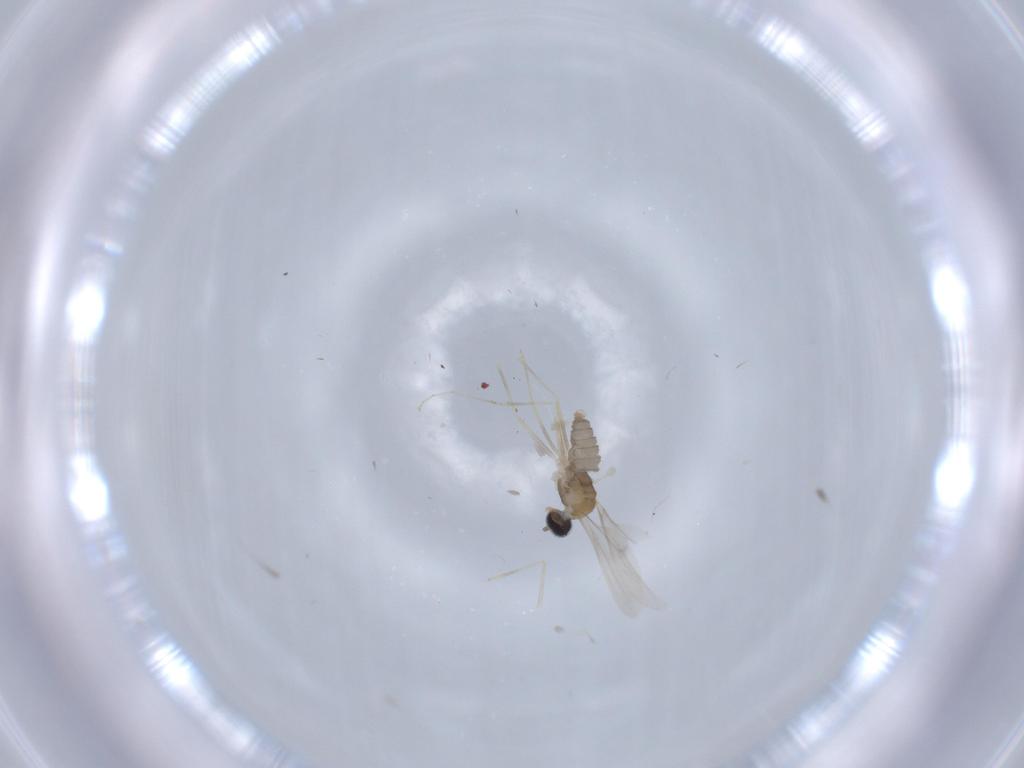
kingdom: Animalia
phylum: Arthropoda
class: Insecta
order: Diptera
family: Cecidomyiidae
